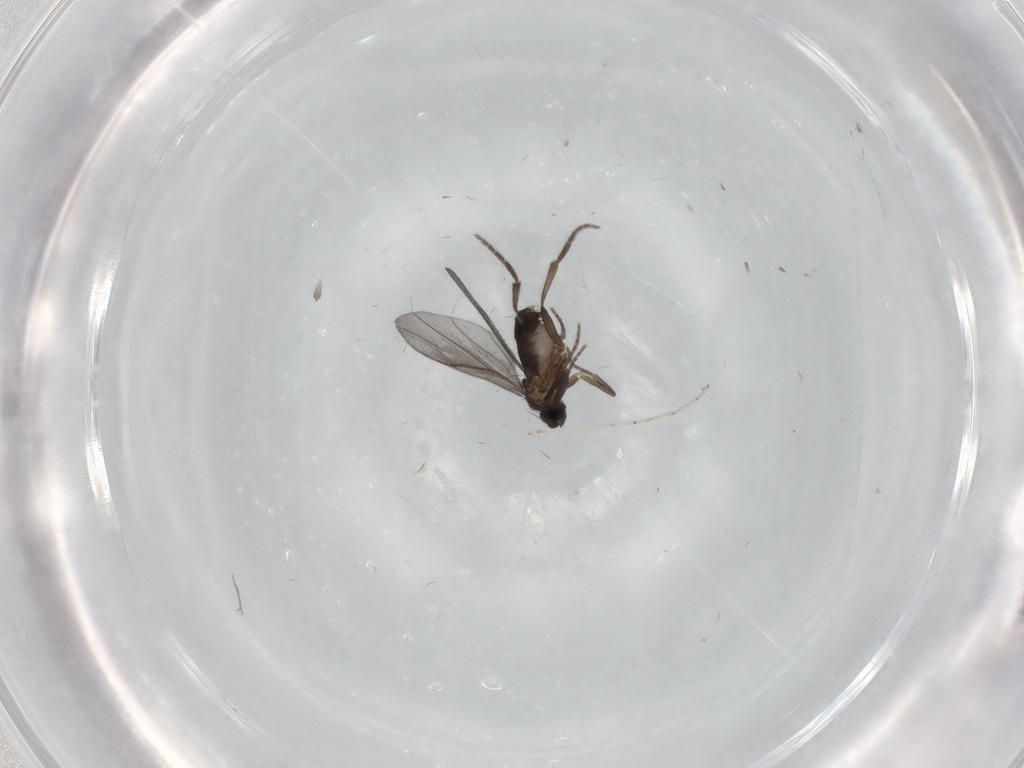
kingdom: Animalia
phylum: Arthropoda
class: Insecta
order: Diptera
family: Phoridae
